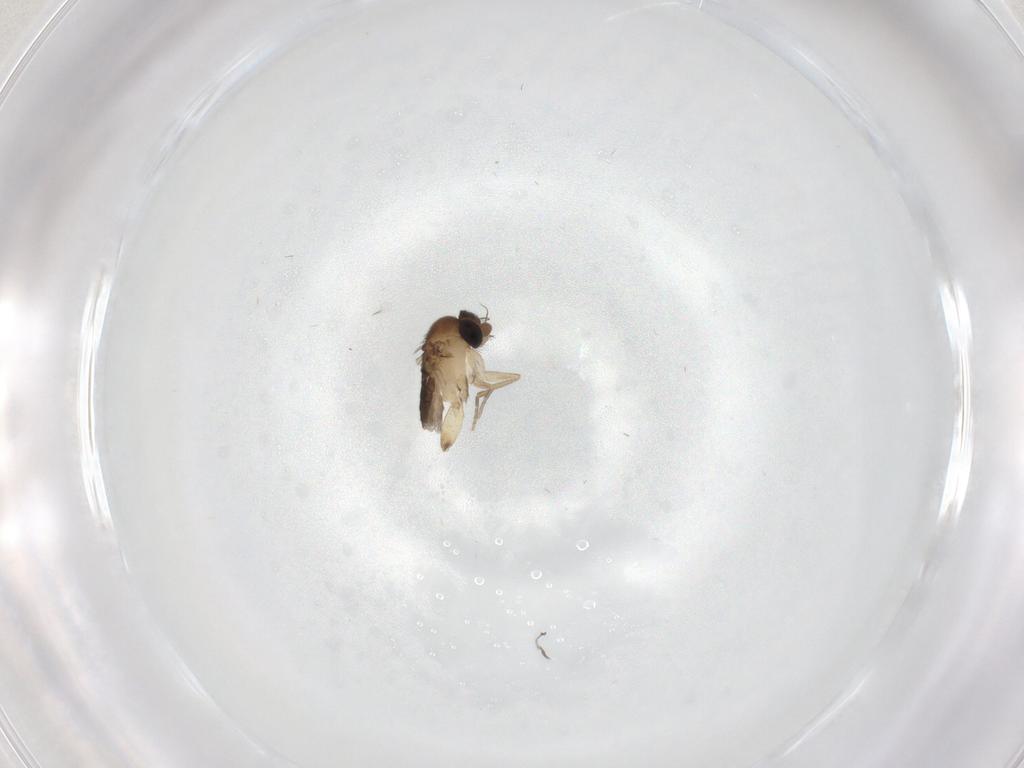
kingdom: Animalia
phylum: Arthropoda
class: Insecta
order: Diptera
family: Phoridae
